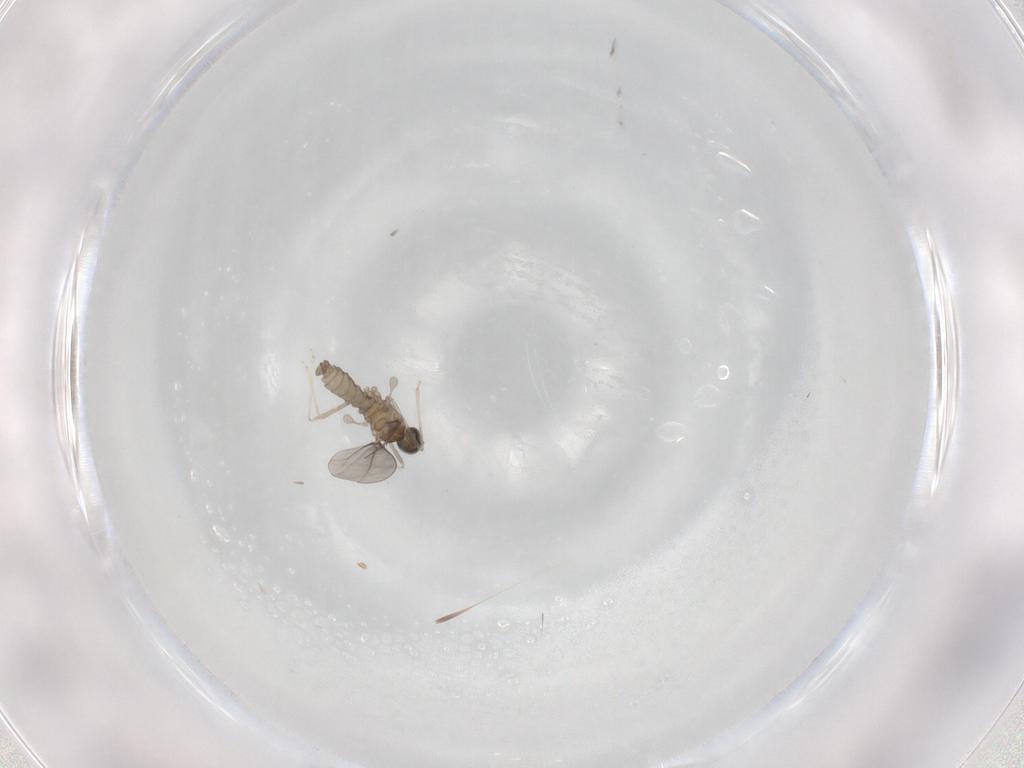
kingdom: Animalia
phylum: Arthropoda
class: Insecta
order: Diptera
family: Cecidomyiidae
